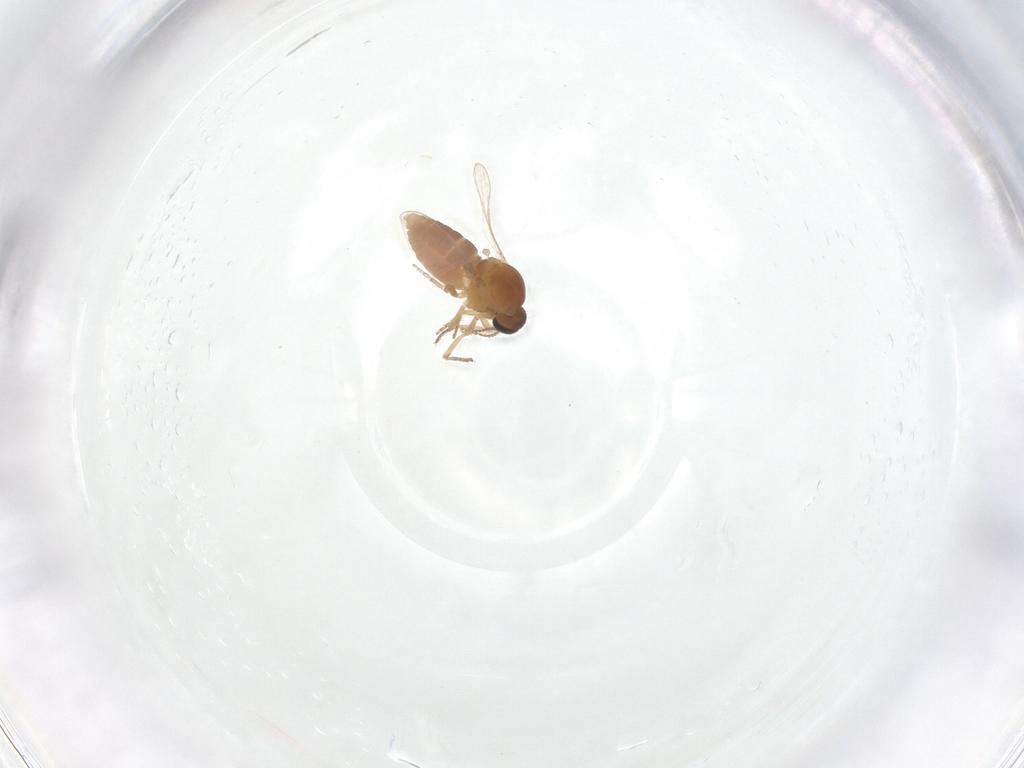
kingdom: Animalia
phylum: Arthropoda
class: Insecta
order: Diptera
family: Ceratopogonidae
